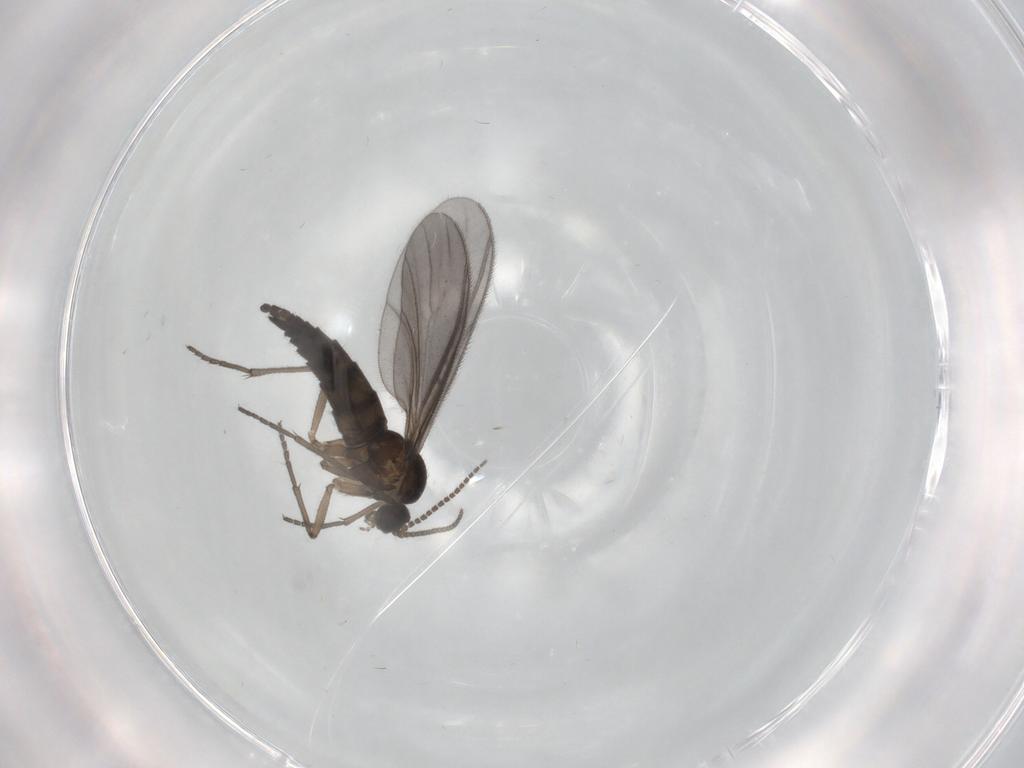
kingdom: Animalia
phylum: Arthropoda
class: Insecta
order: Diptera
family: Sciaridae
